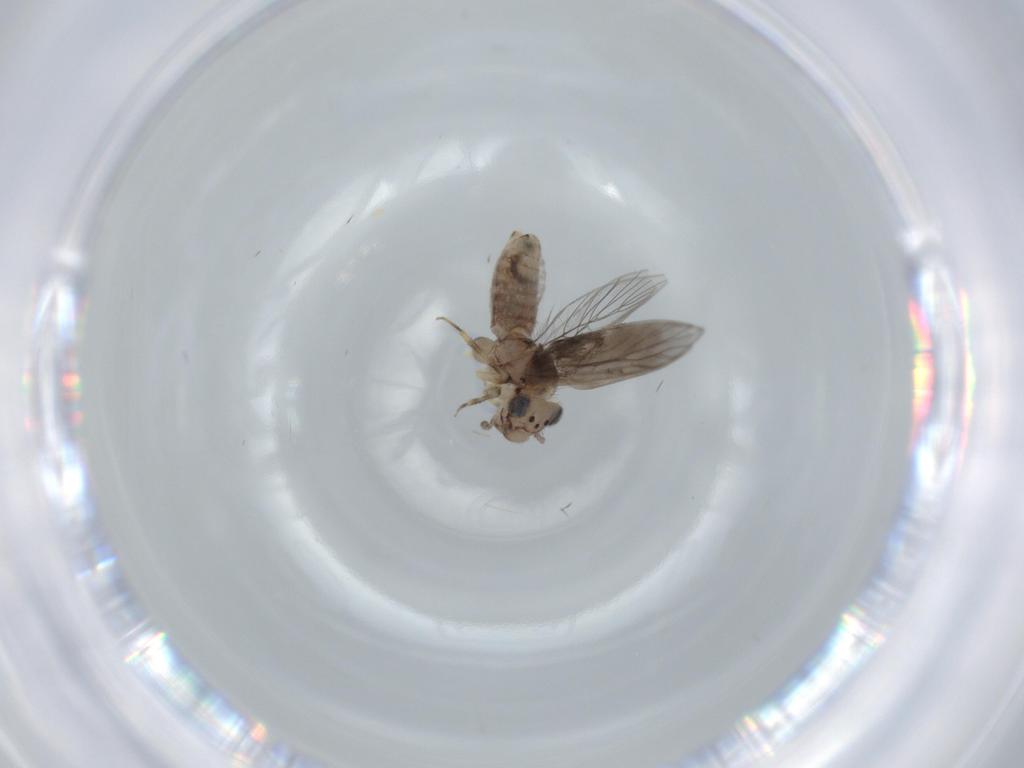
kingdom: Animalia
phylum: Arthropoda
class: Insecta
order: Psocodea
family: Lepidopsocidae
